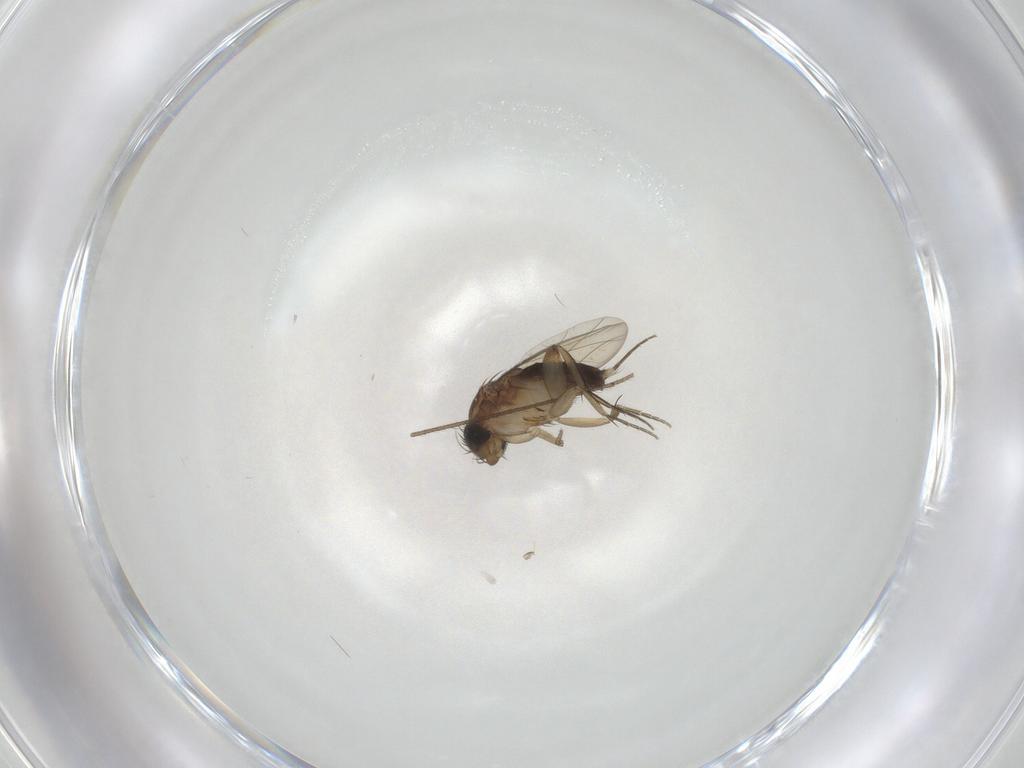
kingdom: Animalia
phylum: Arthropoda
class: Insecta
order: Diptera
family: Phoridae
